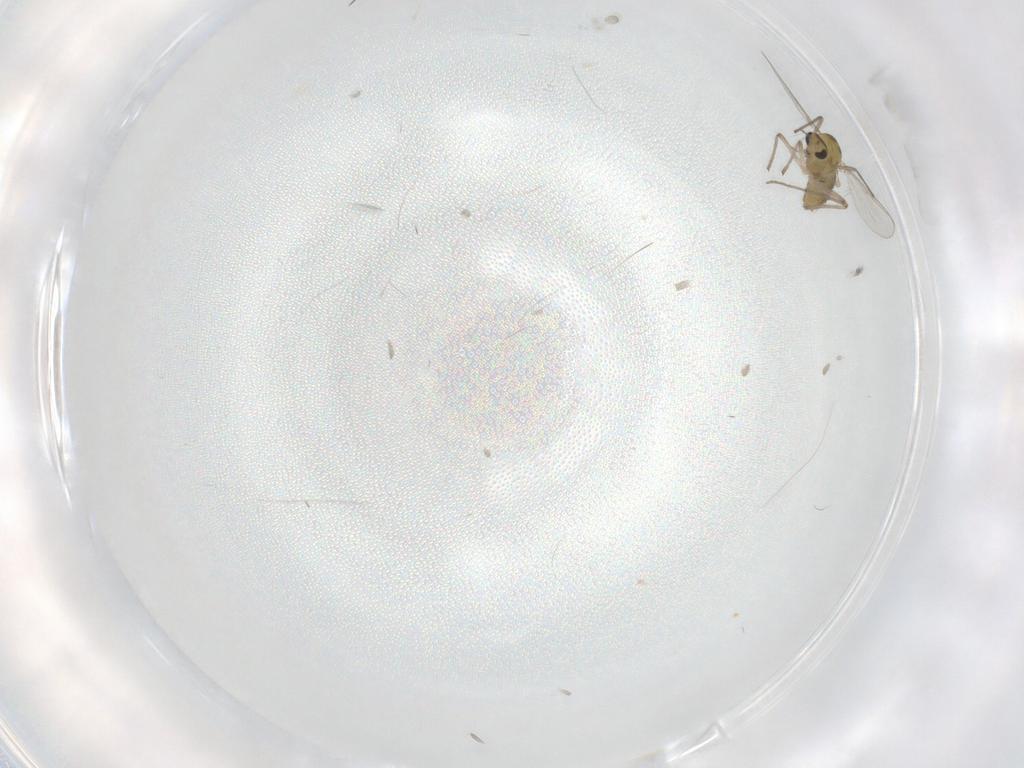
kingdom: Animalia
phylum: Arthropoda
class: Insecta
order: Diptera
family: Chironomidae
